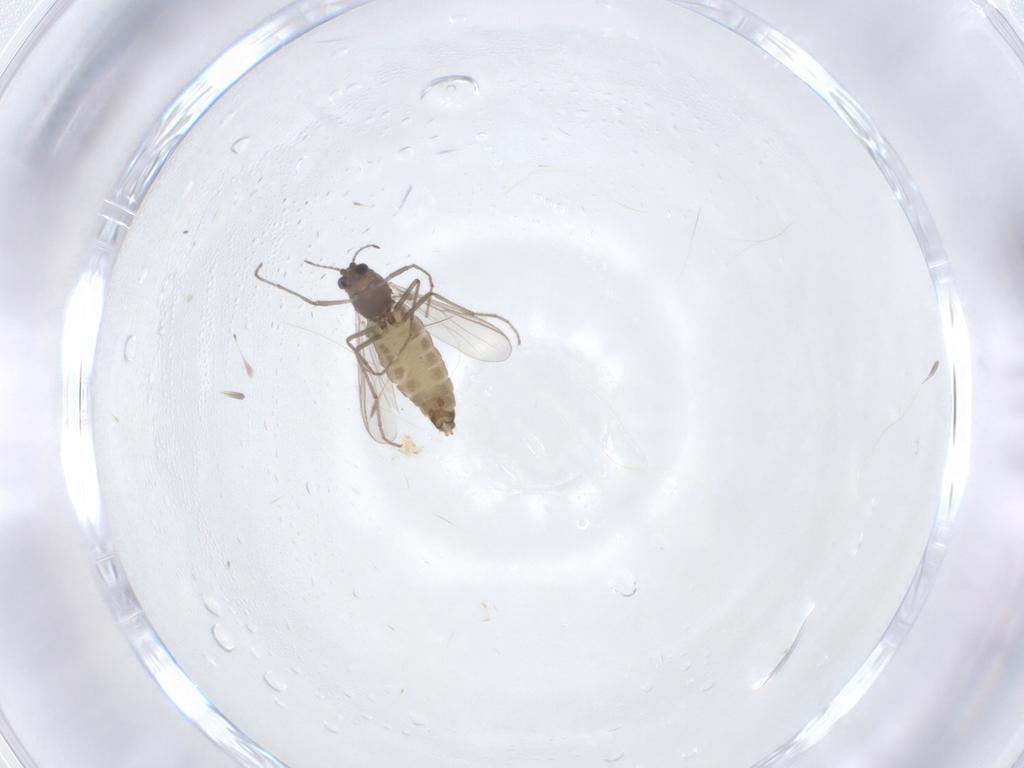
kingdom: Animalia
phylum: Arthropoda
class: Insecta
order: Diptera
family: Chironomidae
